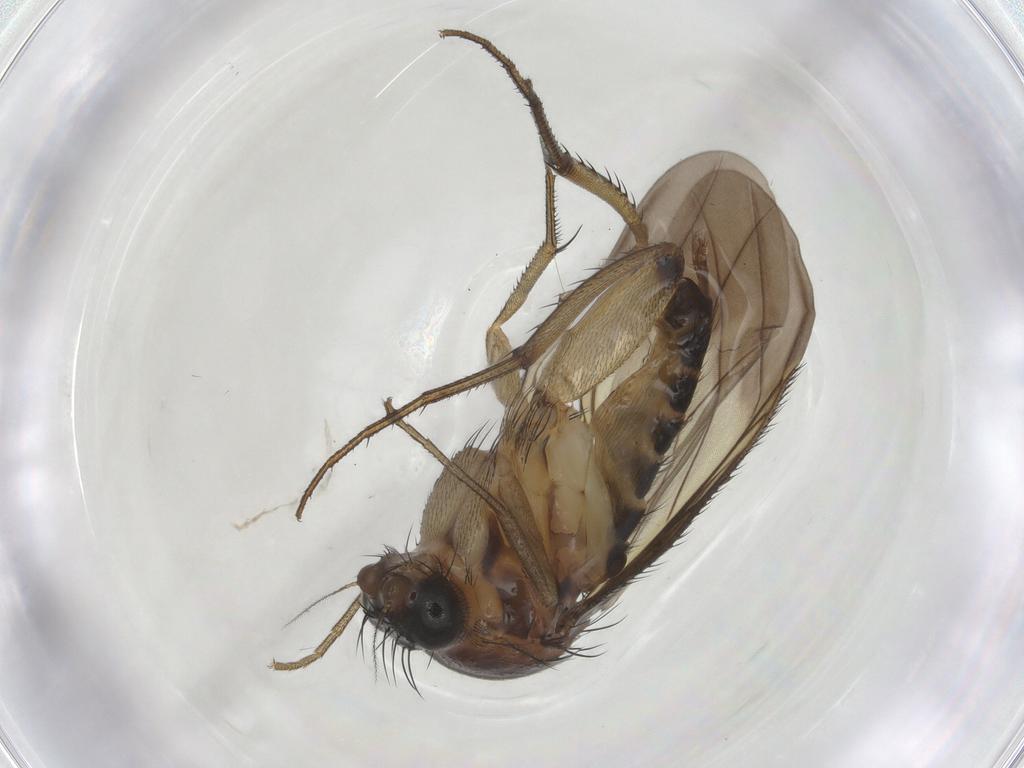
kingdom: Animalia
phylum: Arthropoda
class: Insecta
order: Diptera
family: Phoridae
